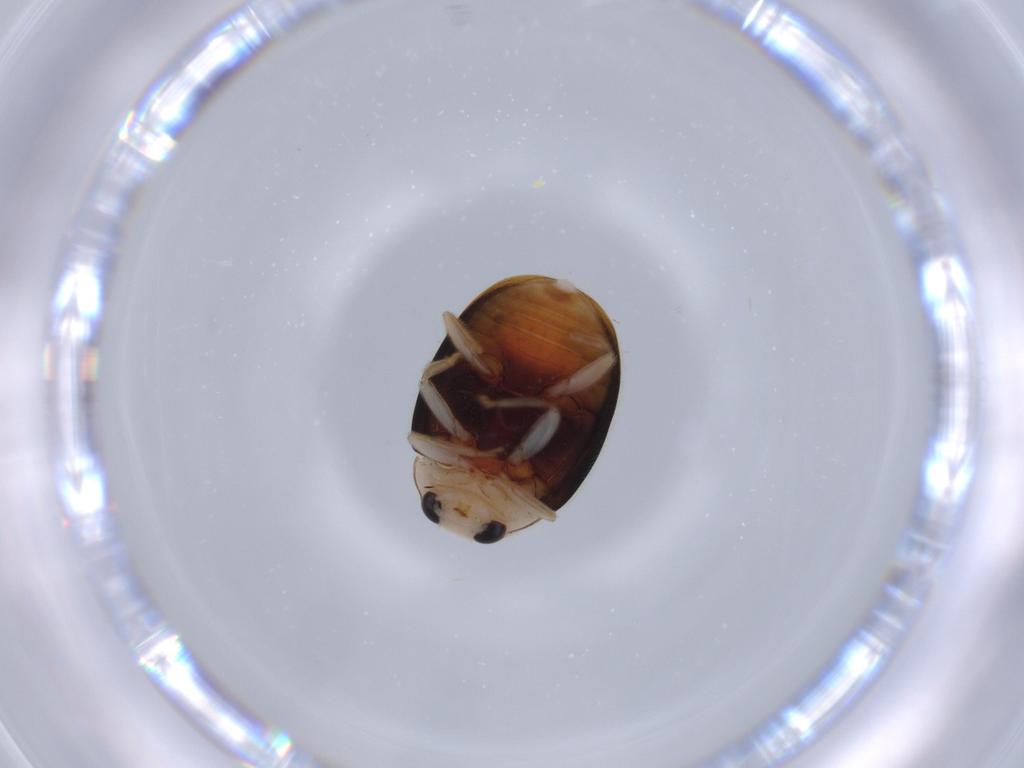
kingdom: Animalia
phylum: Arthropoda
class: Insecta
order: Coleoptera
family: Coccinellidae
